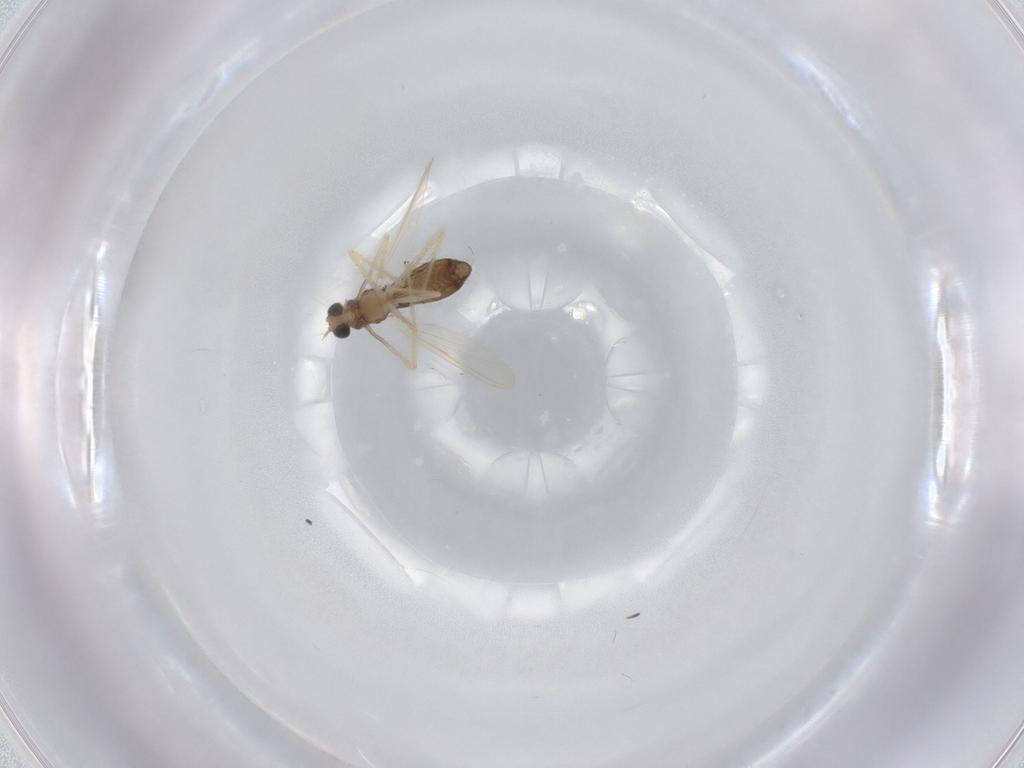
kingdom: Animalia
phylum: Arthropoda
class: Insecta
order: Diptera
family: Chironomidae
